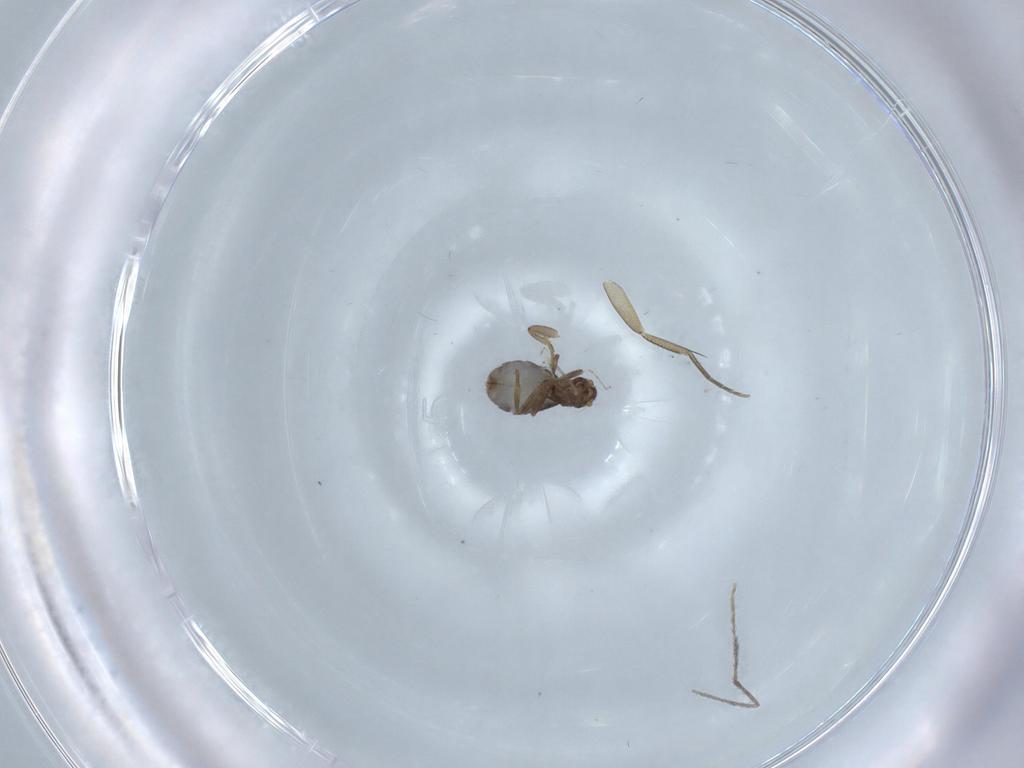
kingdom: Animalia
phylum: Arthropoda
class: Insecta
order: Diptera
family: Phoridae
